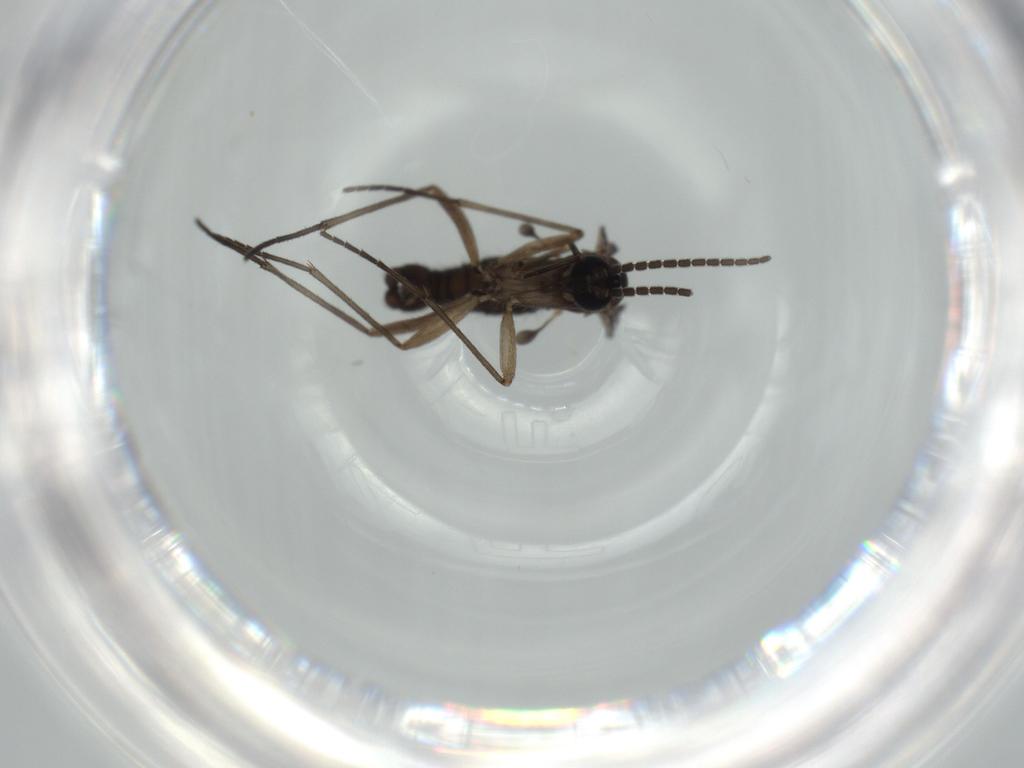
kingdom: Animalia
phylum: Arthropoda
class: Insecta
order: Diptera
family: Sciaridae
